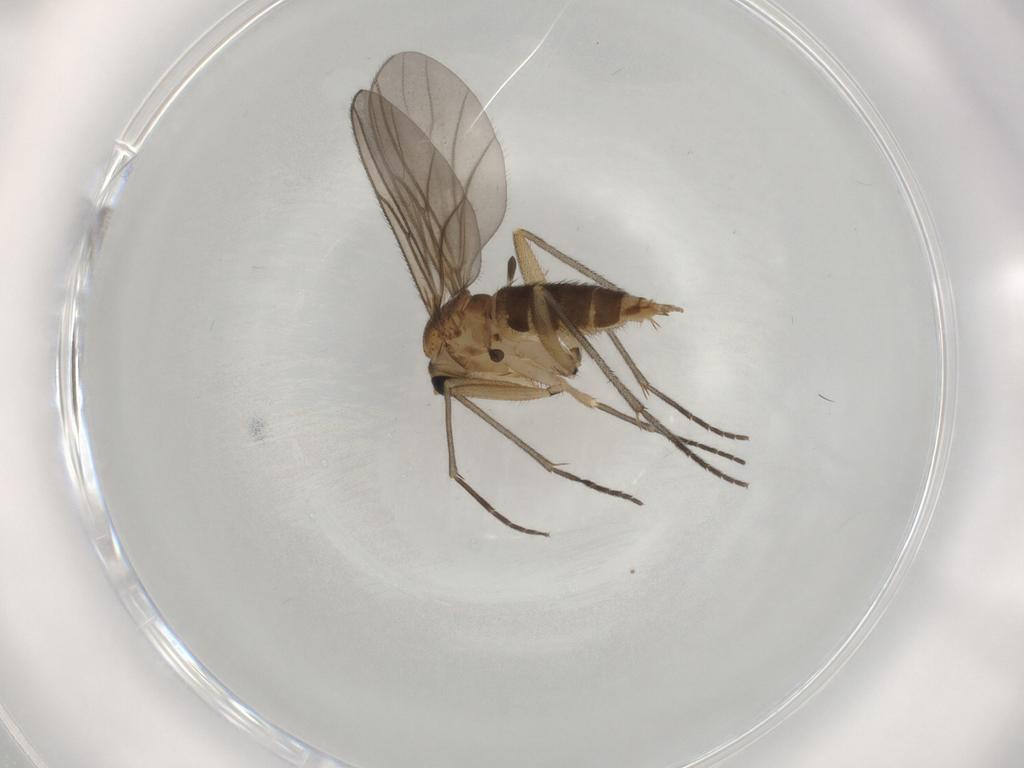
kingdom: Animalia
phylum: Arthropoda
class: Insecta
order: Diptera
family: Sciaridae
